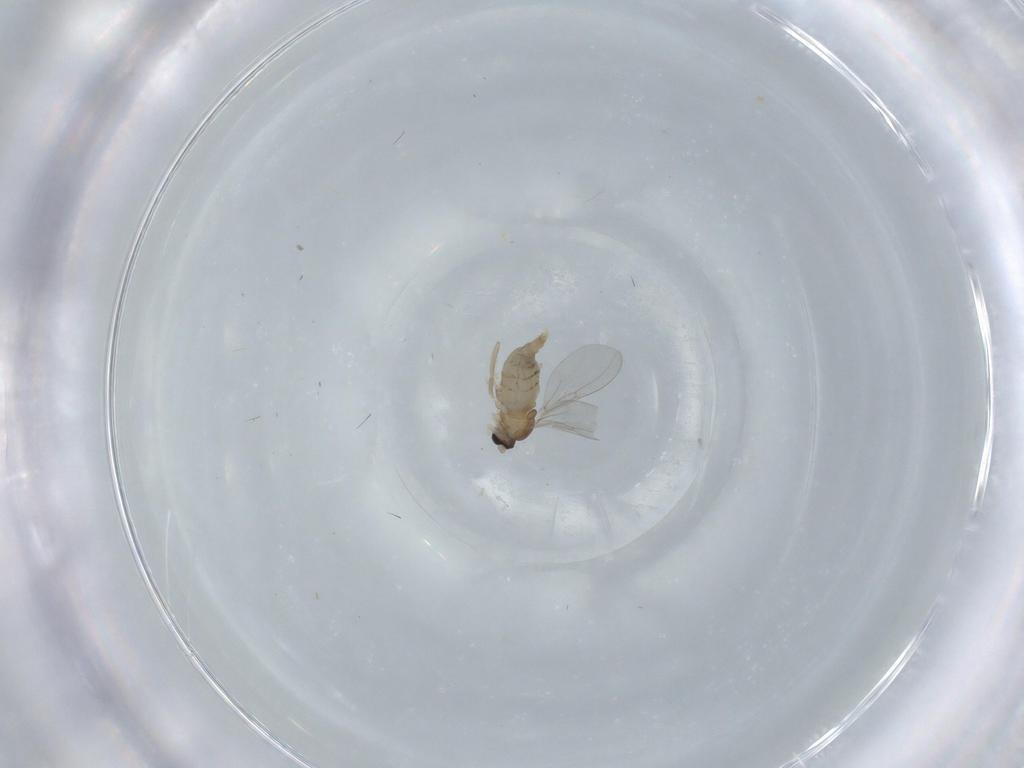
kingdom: Animalia
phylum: Arthropoda
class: Insecta
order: Diptera
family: Cecidomyiidae
